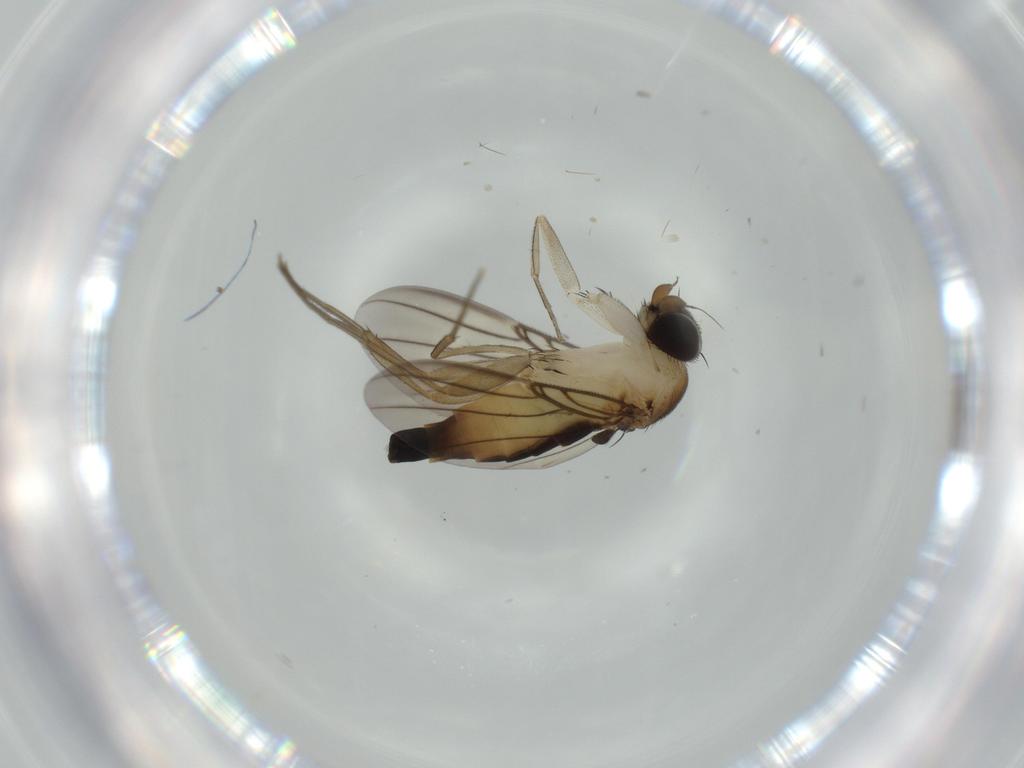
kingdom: Animalia
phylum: Arthropoda
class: Insecta
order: Diptera
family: Phoridae
